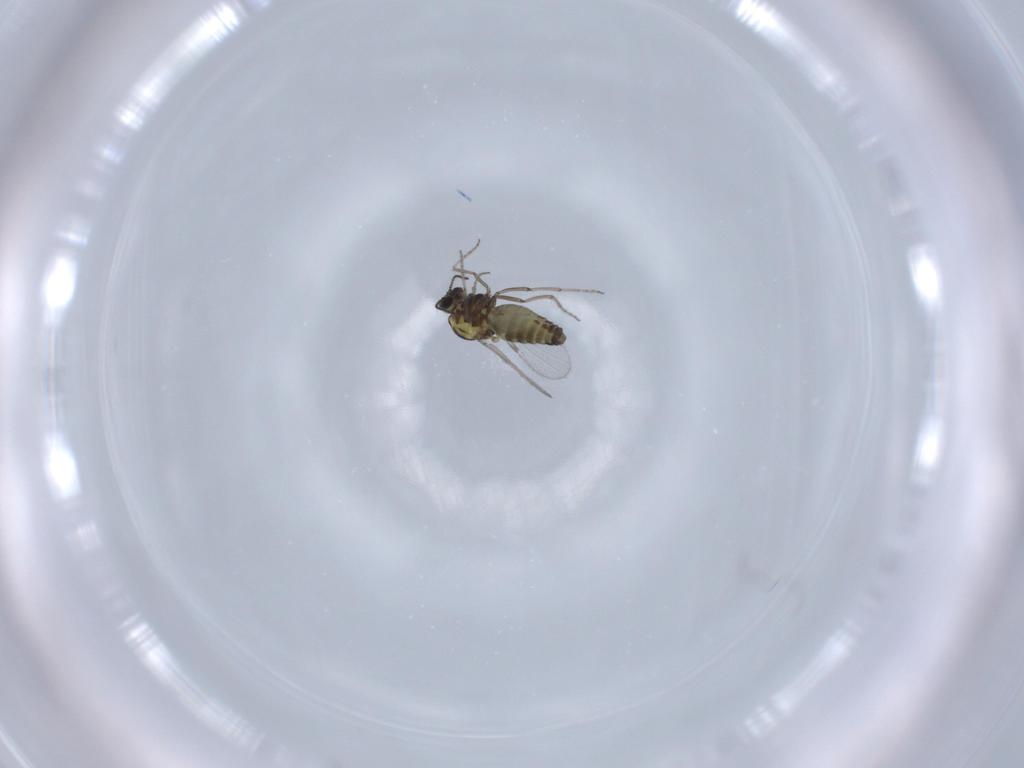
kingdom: Animalia
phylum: Arthropoda
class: Insecta
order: Diptera
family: Ceratopogonidae
